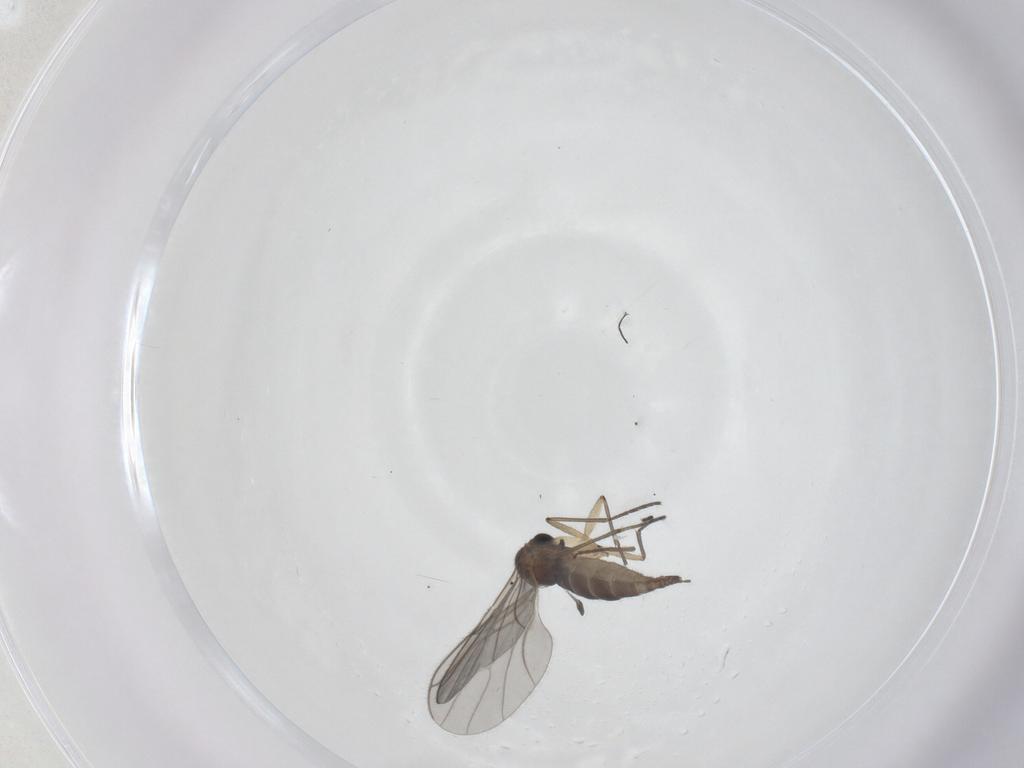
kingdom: Animalia
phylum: Arthropoda
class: Insecta
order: Diptera
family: Sciaridae
